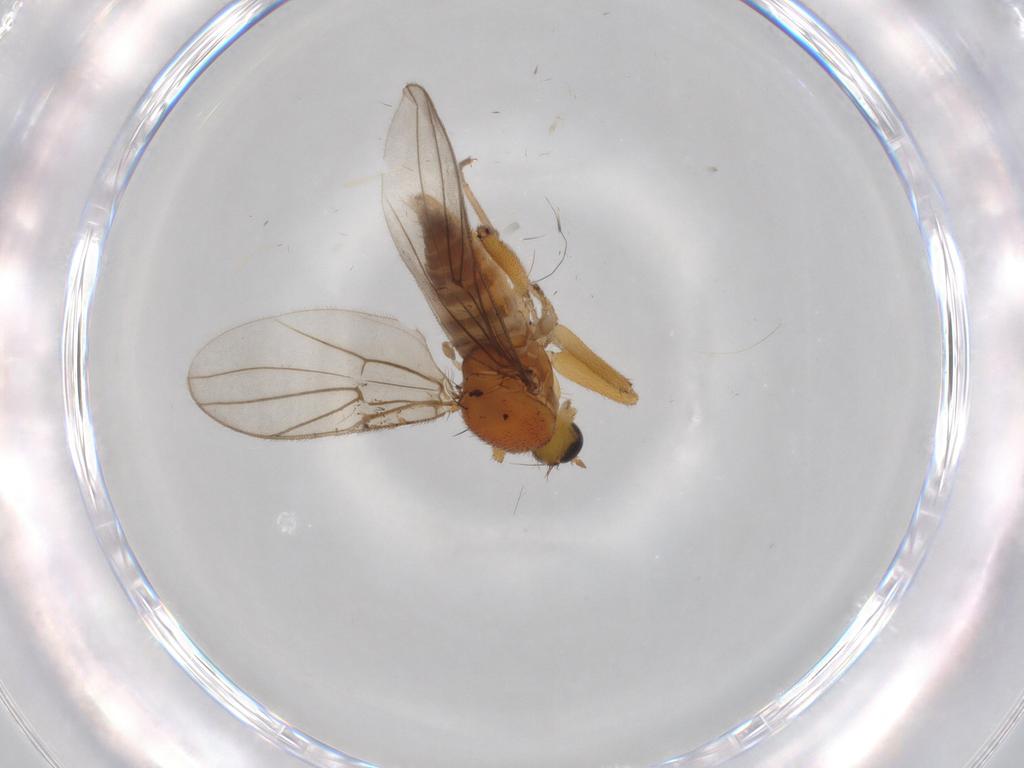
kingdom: Animalia
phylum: Arthropoda
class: Insecta
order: Diptera
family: Hybotidae
